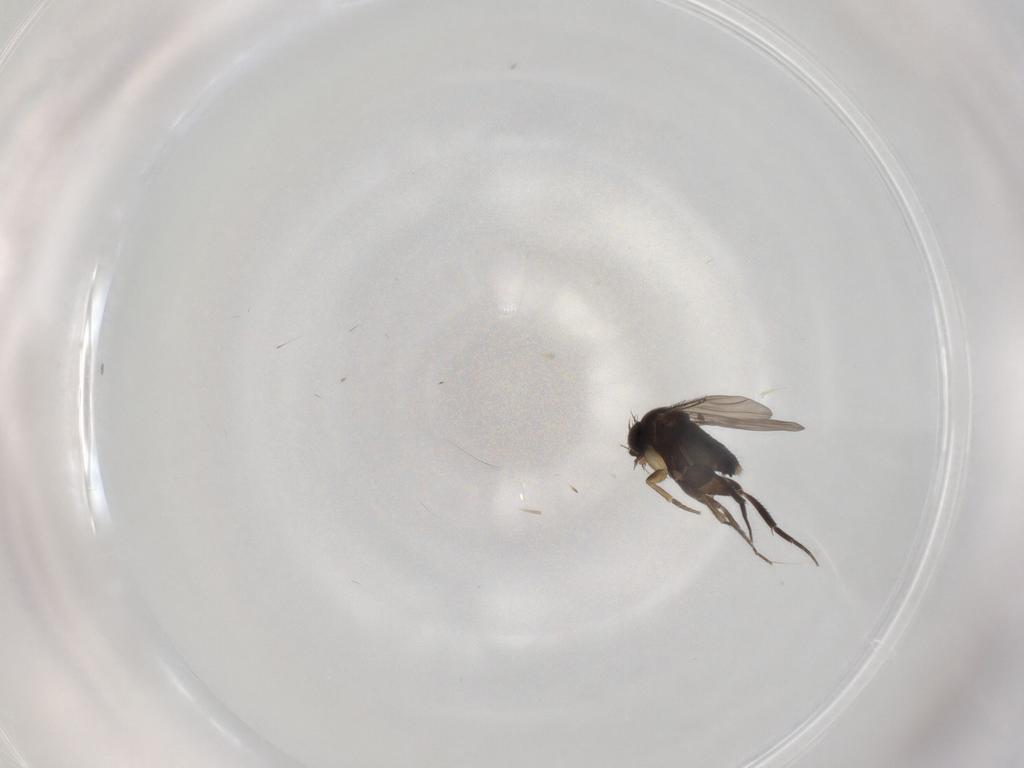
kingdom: Animalia
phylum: Arthropoda
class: Insecta
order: Diptera
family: Phoridae
